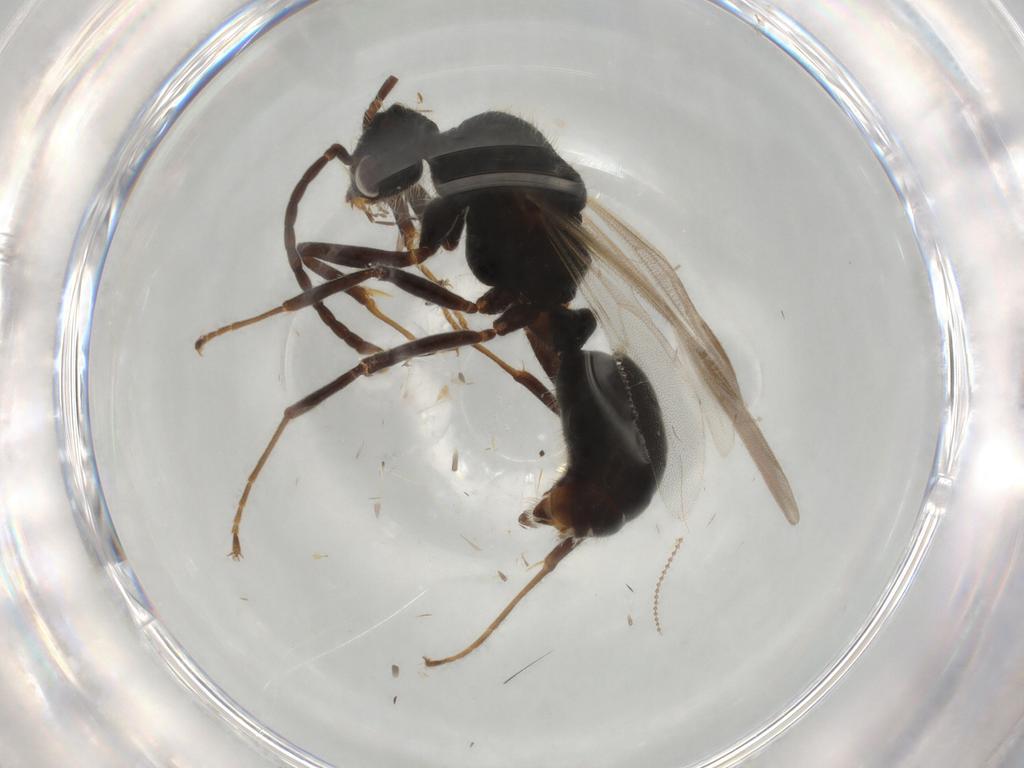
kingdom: Animalia
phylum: Arthropoda
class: Insecta
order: Hymenoptera
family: Formicidae
